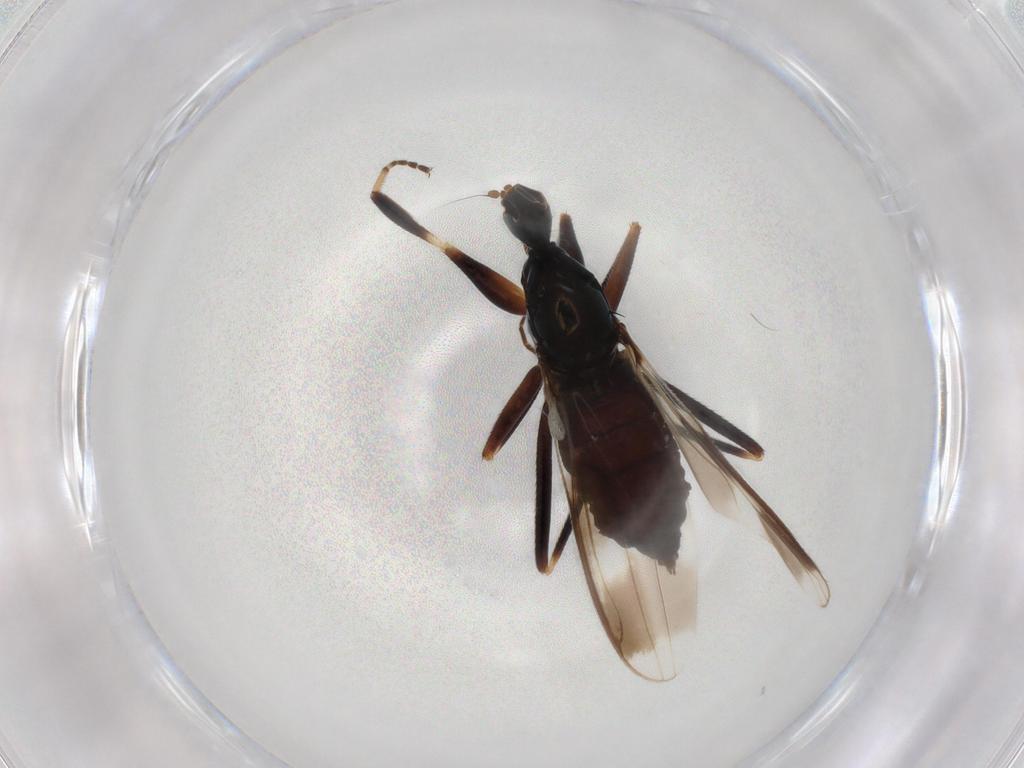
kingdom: Animalia
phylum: Arthropoda
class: Insecta
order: Diptera
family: Hybotidae
